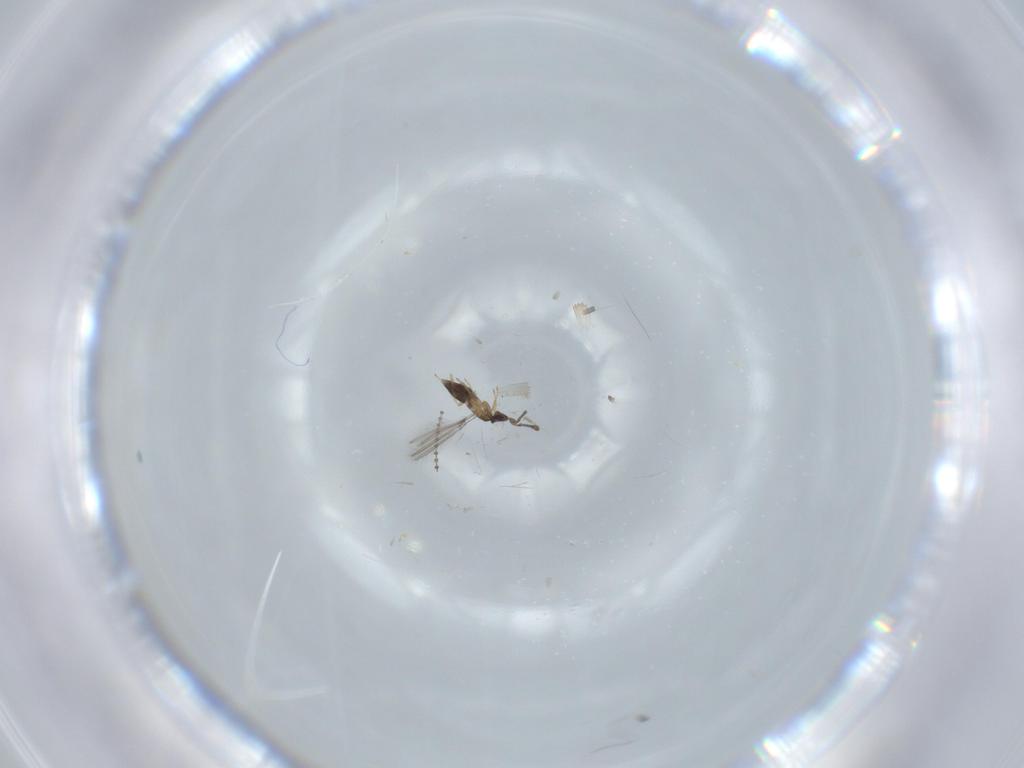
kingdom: Animalia
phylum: Arthropoda
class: Insecta
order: Hymenoptera
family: Mymaridae
